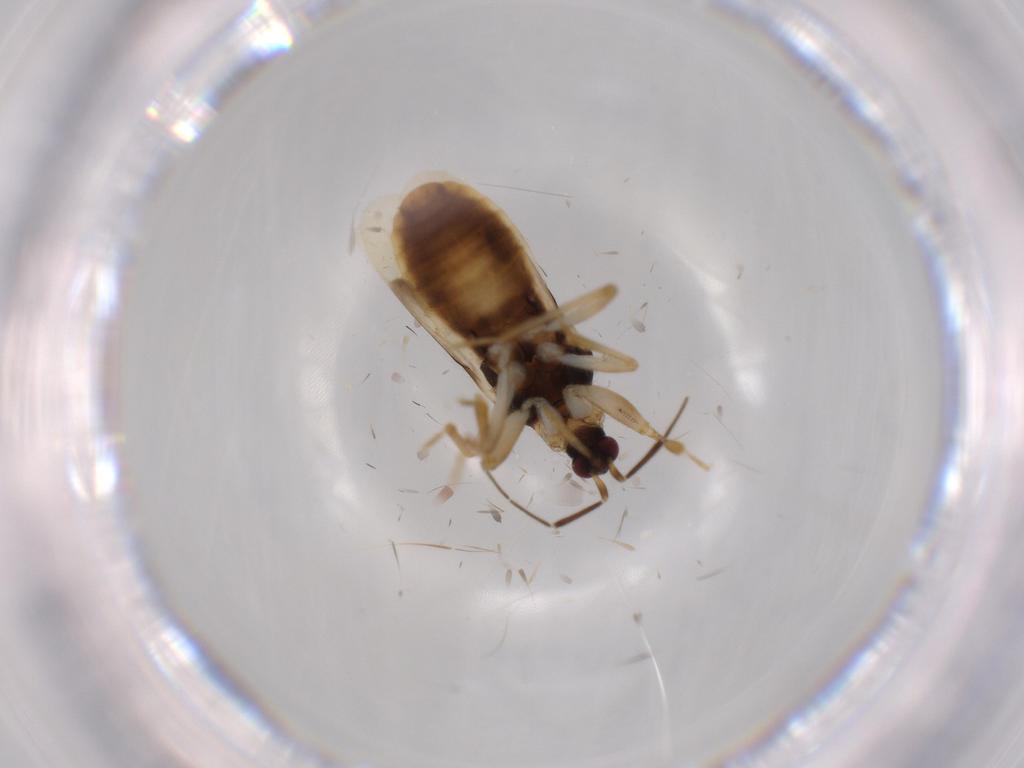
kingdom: Animalia
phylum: Arthropoda
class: Insecta
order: Hemiptera
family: Nabidae
